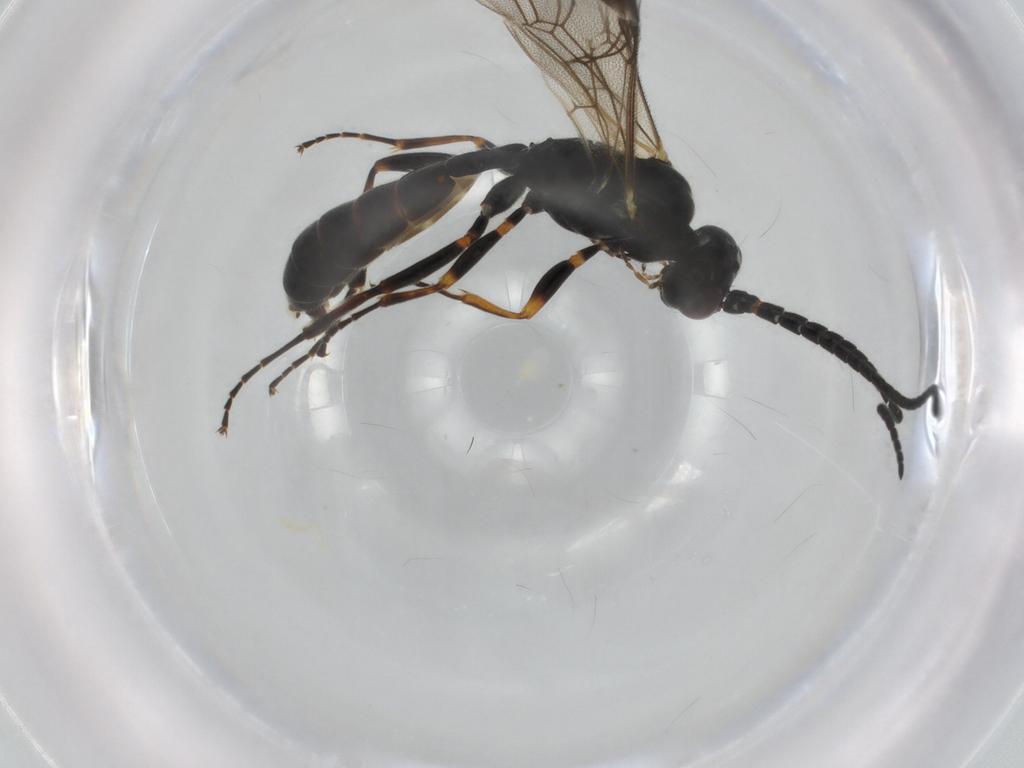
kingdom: Animalia
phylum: Arthropoda
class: Insecta
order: Hymenoptera
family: Ichneumonidae
